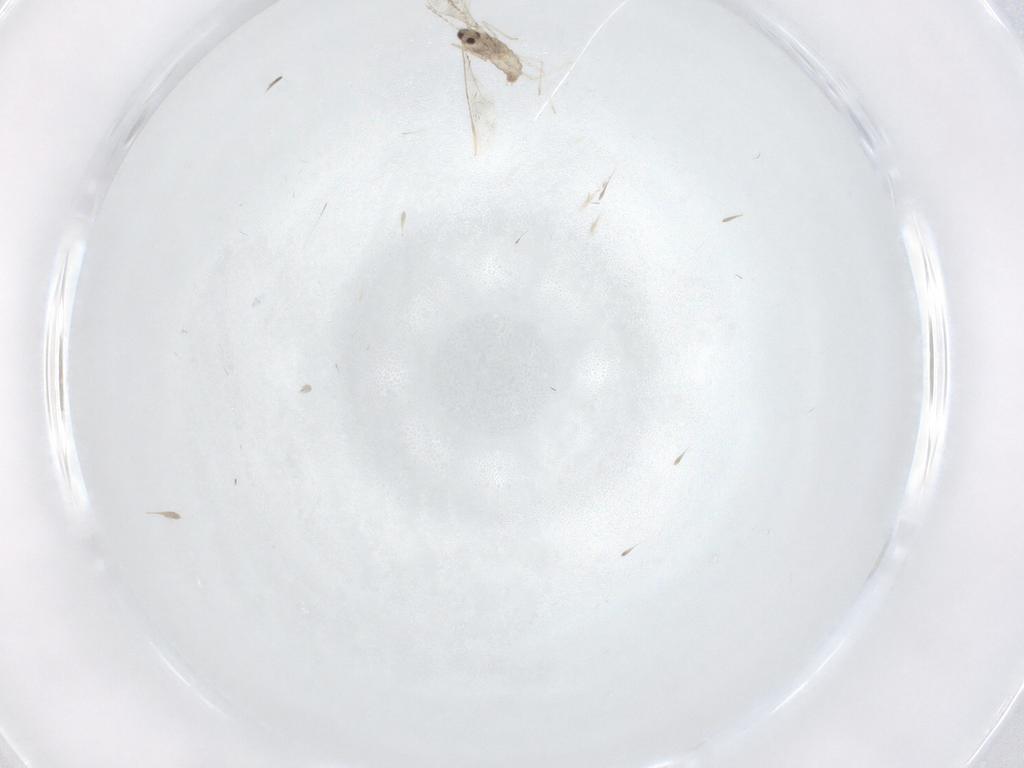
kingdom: Animalia
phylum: Arthropoda
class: Insecta
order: Diptera
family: Cecidomyiidae
